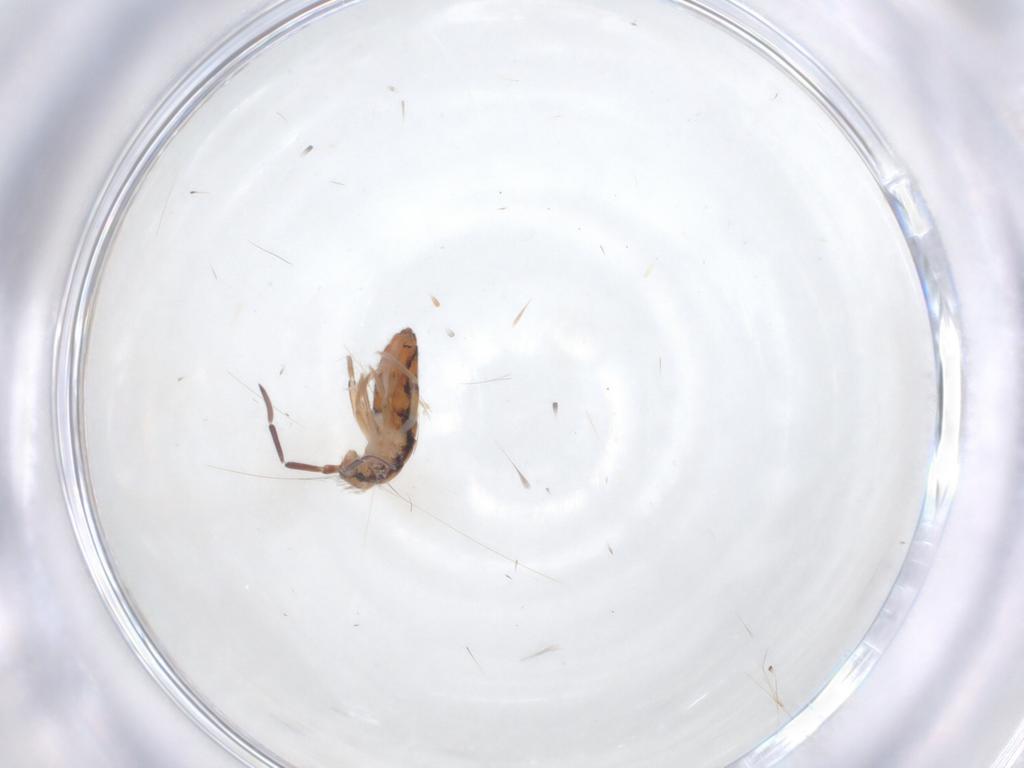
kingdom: Animalia
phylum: Arthropoda
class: Collembola
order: Entomobryomorpha
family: Entomobryidae
